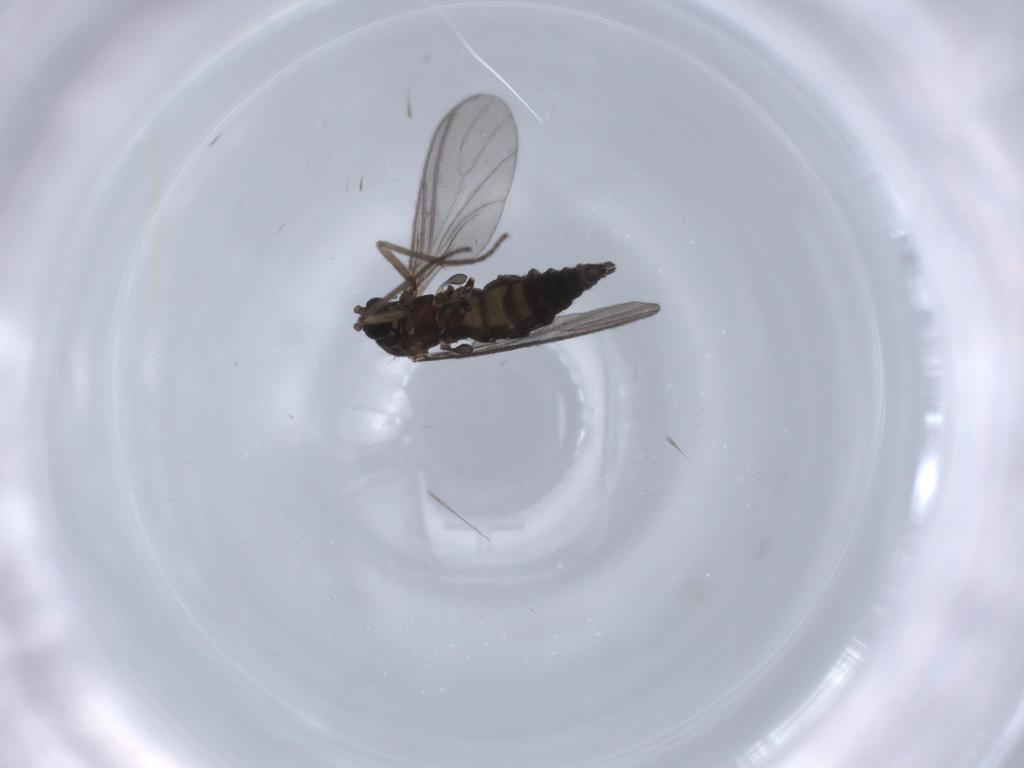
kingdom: Animalia
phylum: Arthropoda
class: Insecta
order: Diptera
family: Sciaridae
